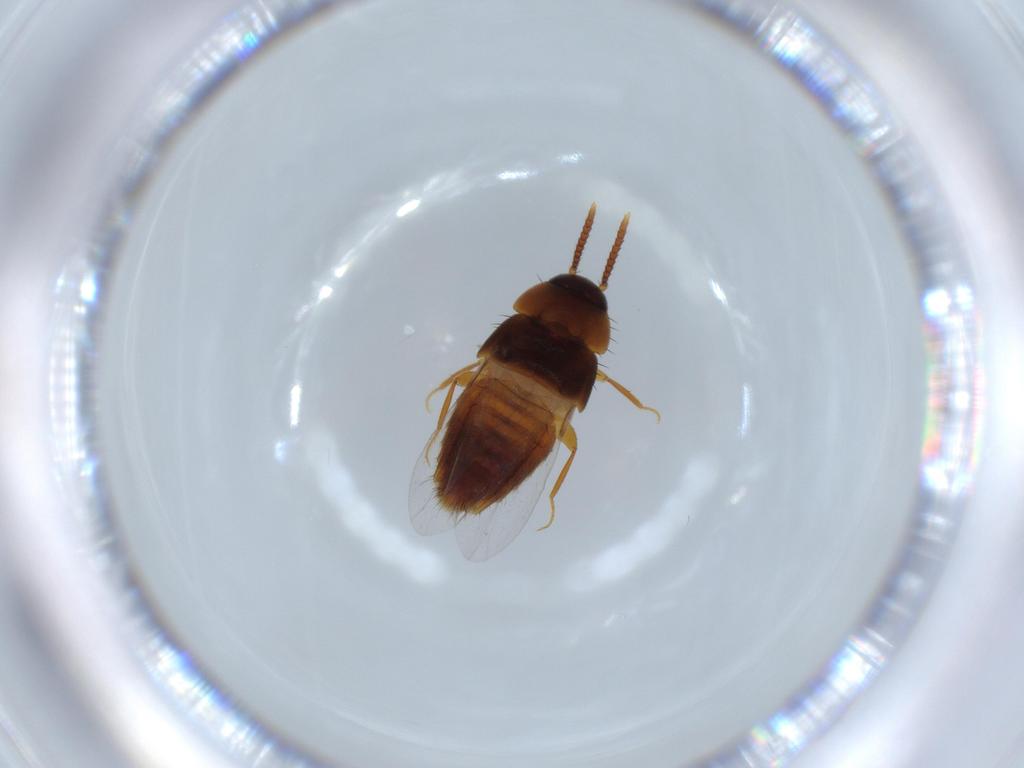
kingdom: Animalia
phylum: Arthropoda
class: Insecta
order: Coleoptera
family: Staphylinidae
